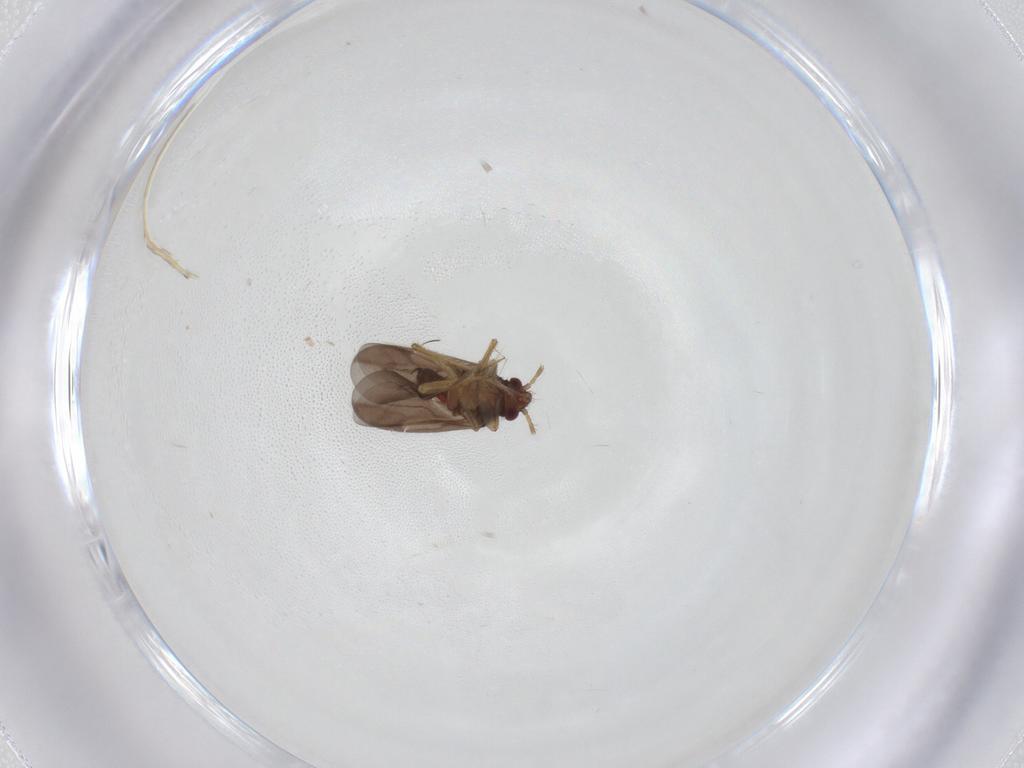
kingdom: Animalia
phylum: Arthropoda
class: Insecta
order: Hemiptera
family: Ceratocombidae
